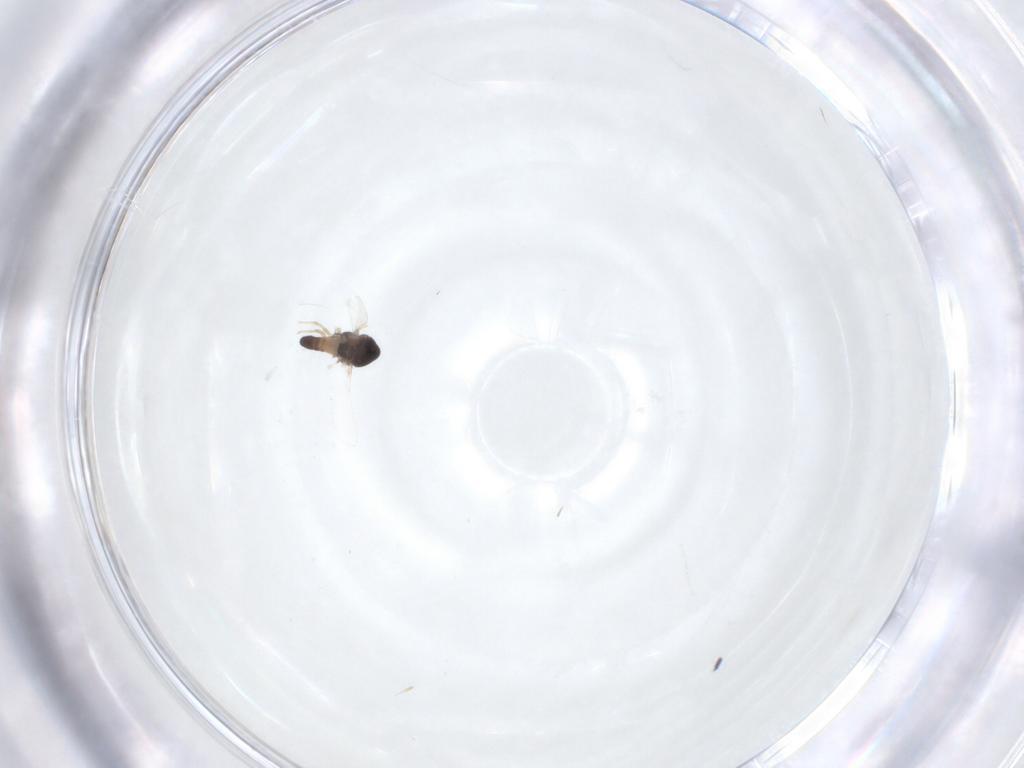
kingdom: Animalia
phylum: Arthropoda
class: Insecta
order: Diptera
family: Chironomidae
